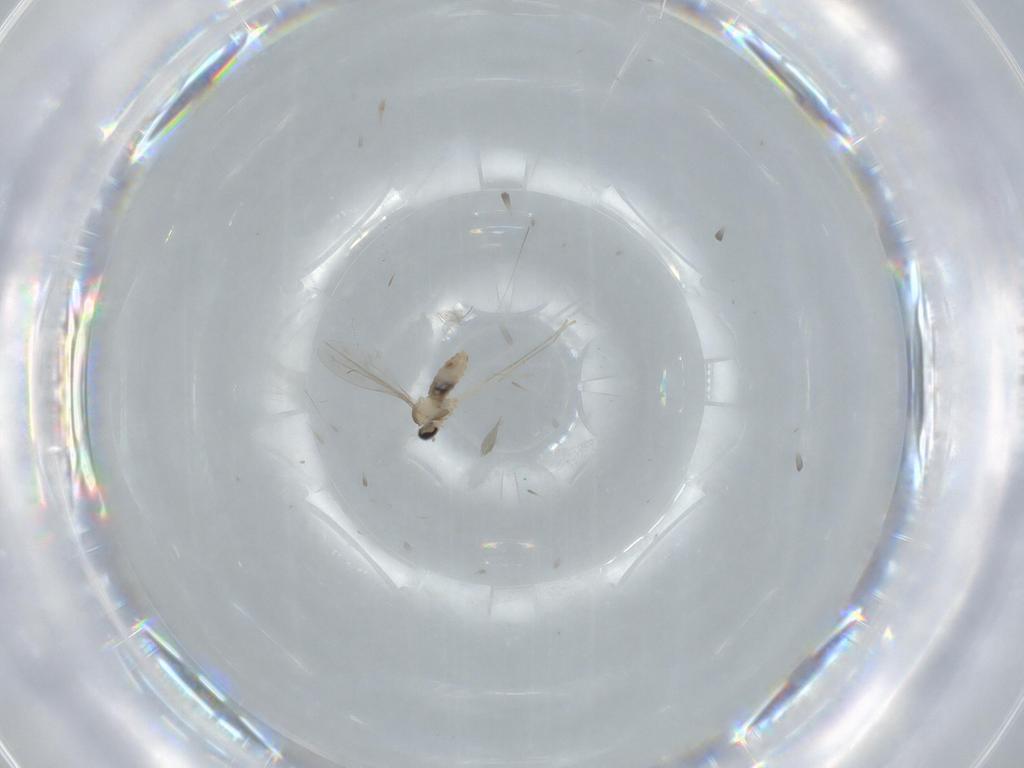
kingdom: Animalia
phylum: Arthropoda
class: Insecta
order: Diptera
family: Cecidomyiidae
